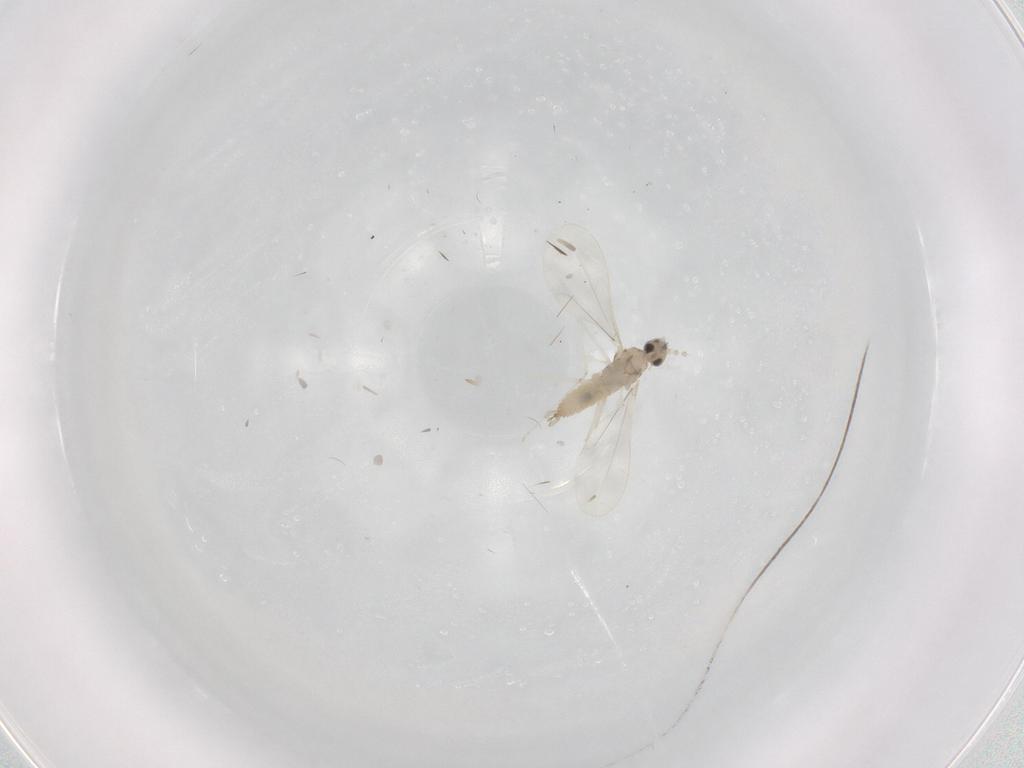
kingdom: Animalia
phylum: Arthropoda
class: Insecta
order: Diptera
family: Cecidomyiidae
